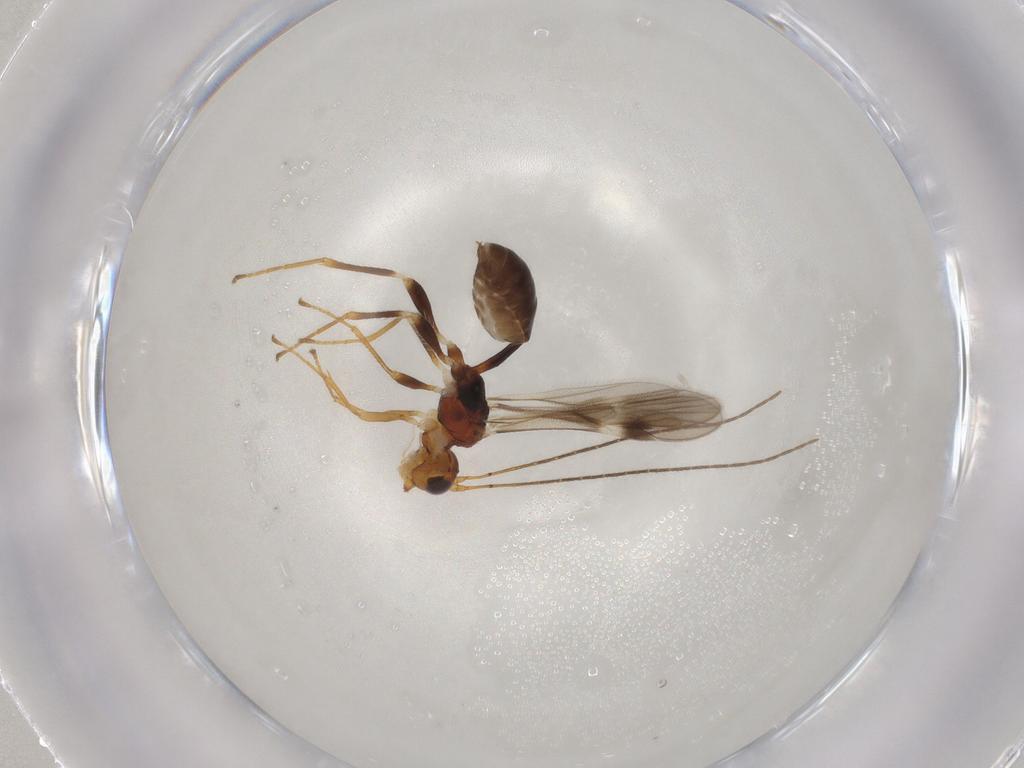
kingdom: Animalia
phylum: Arthropoda
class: Insecta
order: Hymenoptera
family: Braconidae
